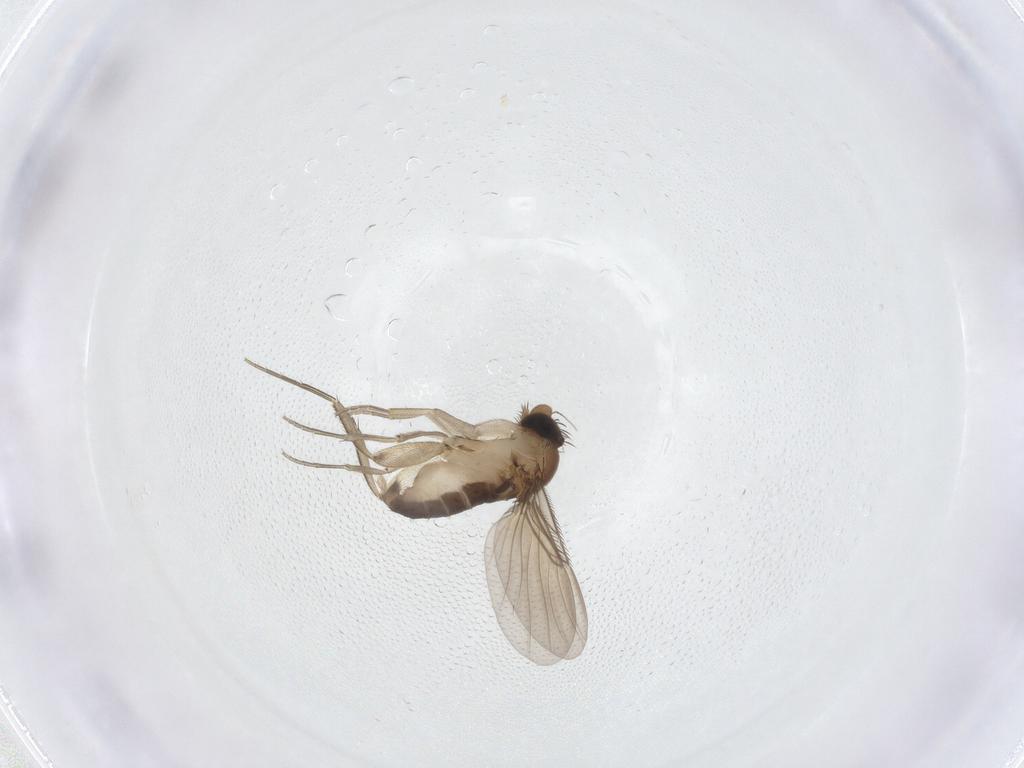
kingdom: Animalia
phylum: Arthropoda
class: Insecta
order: Diptera
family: Phoridae
